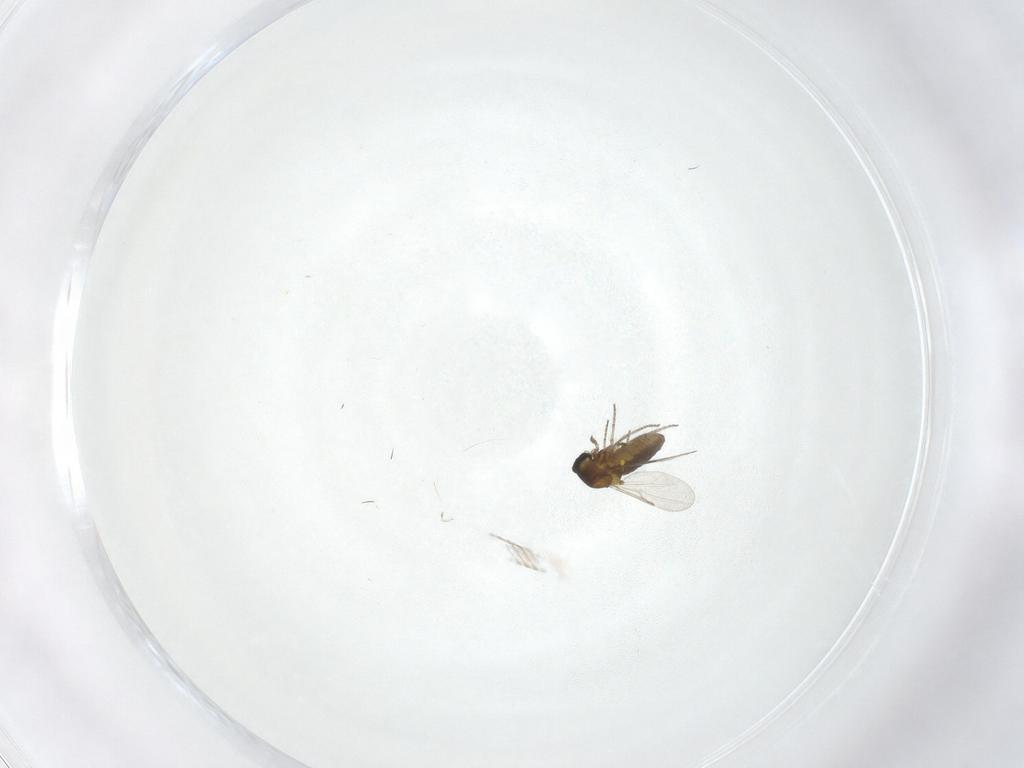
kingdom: Animalia
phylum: Arthropoda
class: Insecta
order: Diptera
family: Ceratopogonidae
